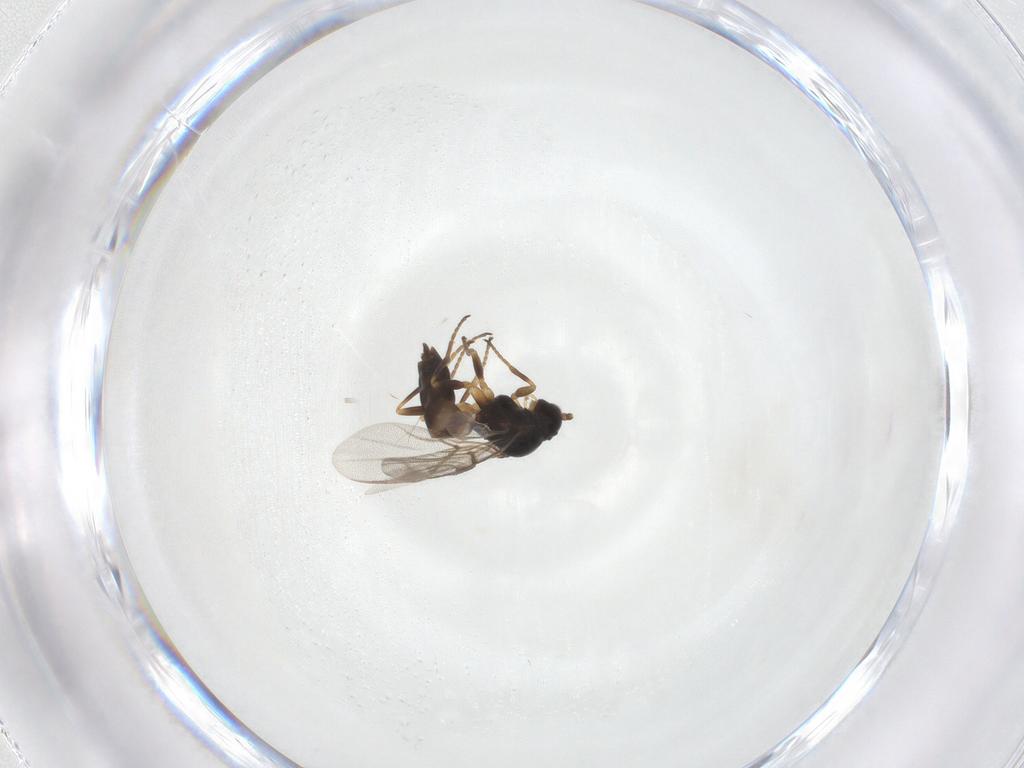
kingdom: Animalia
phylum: Arthropoda
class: Insecta
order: Hymenoptera
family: Braconidae
